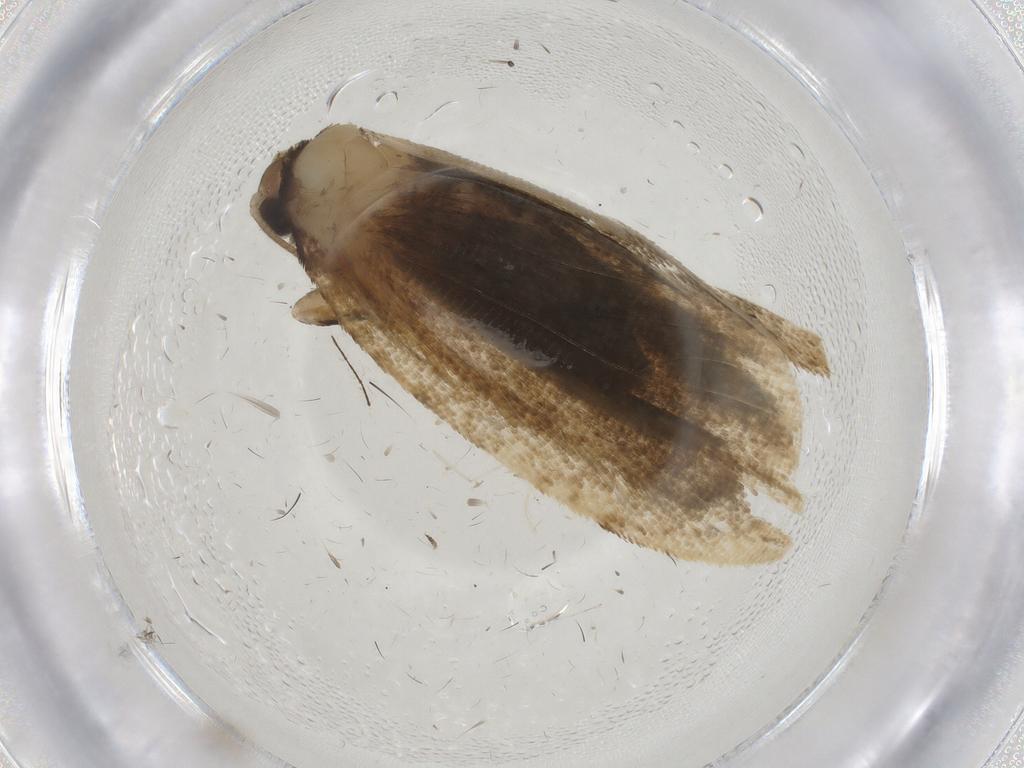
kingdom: Animalia
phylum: Arthropoda
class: Insecta
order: Lepidoptera
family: Tortricidae
